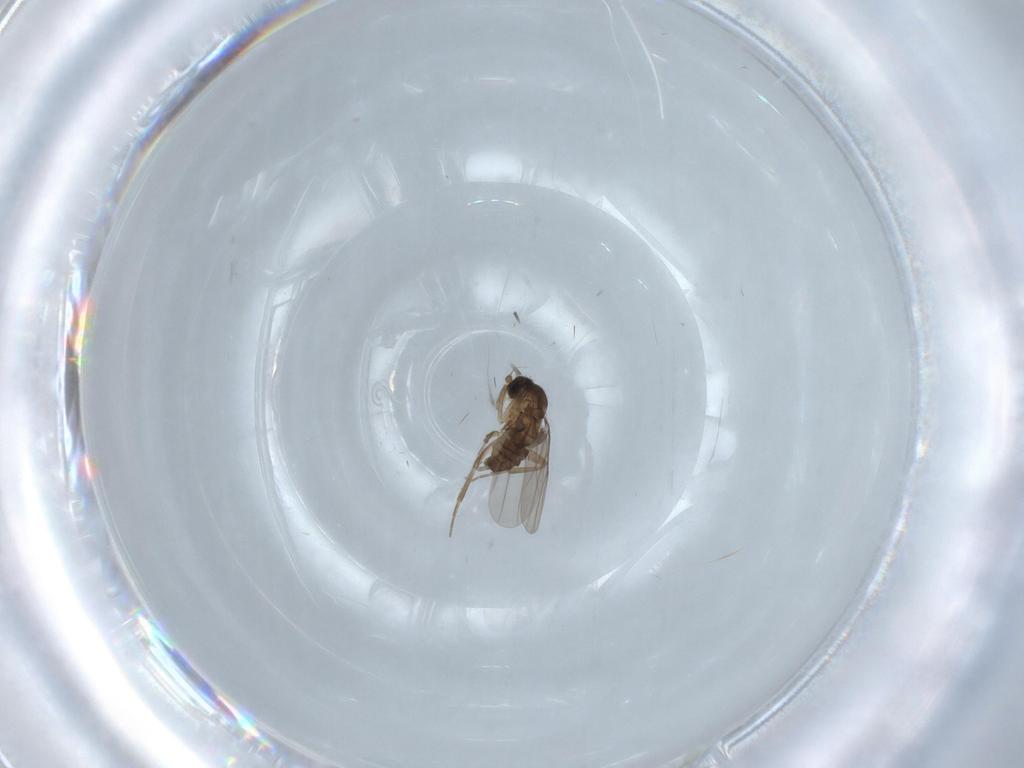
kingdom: Animalia
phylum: Arthropoda
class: Insecta
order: Diptera
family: Phoridae
